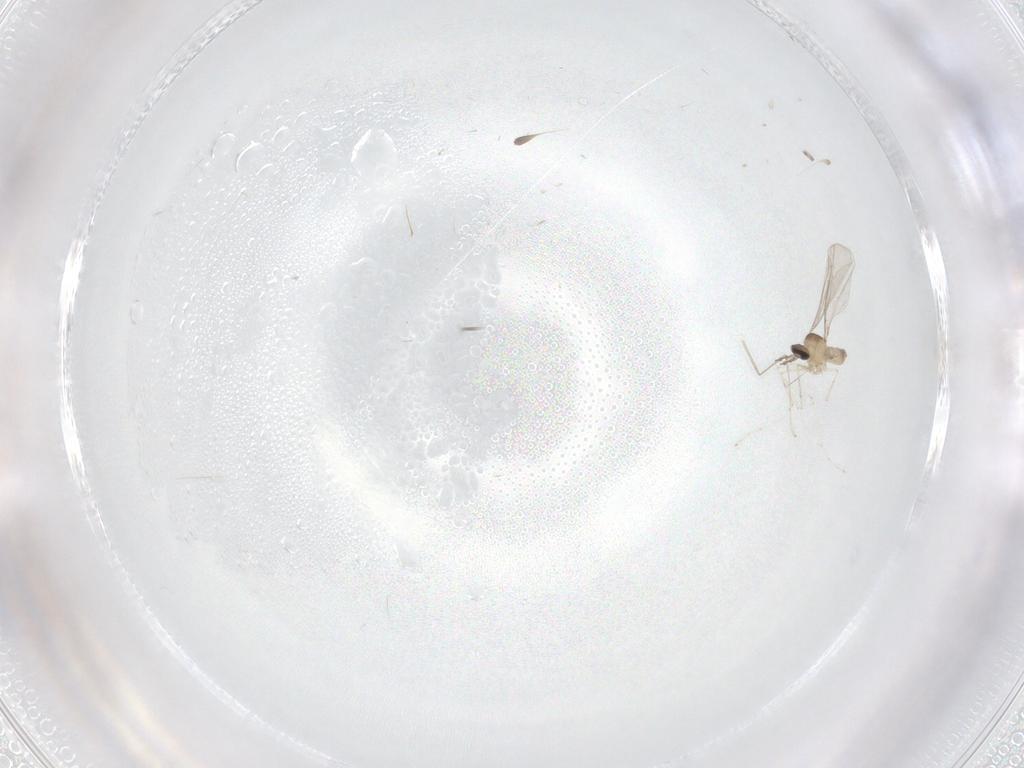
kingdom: Animalia
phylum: Arthropoda
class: Insecta
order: Diptera
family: Cecidomyiidae
